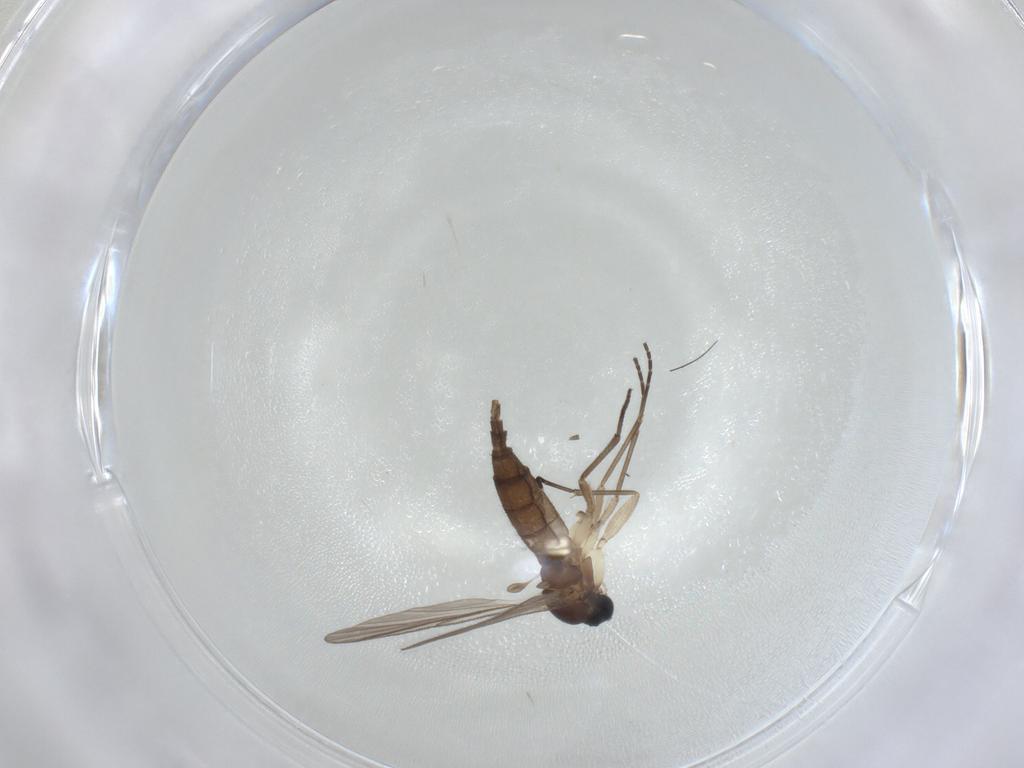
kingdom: Animalia
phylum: Arthropoda
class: Insecta
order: Diptera
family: Sciaridae
